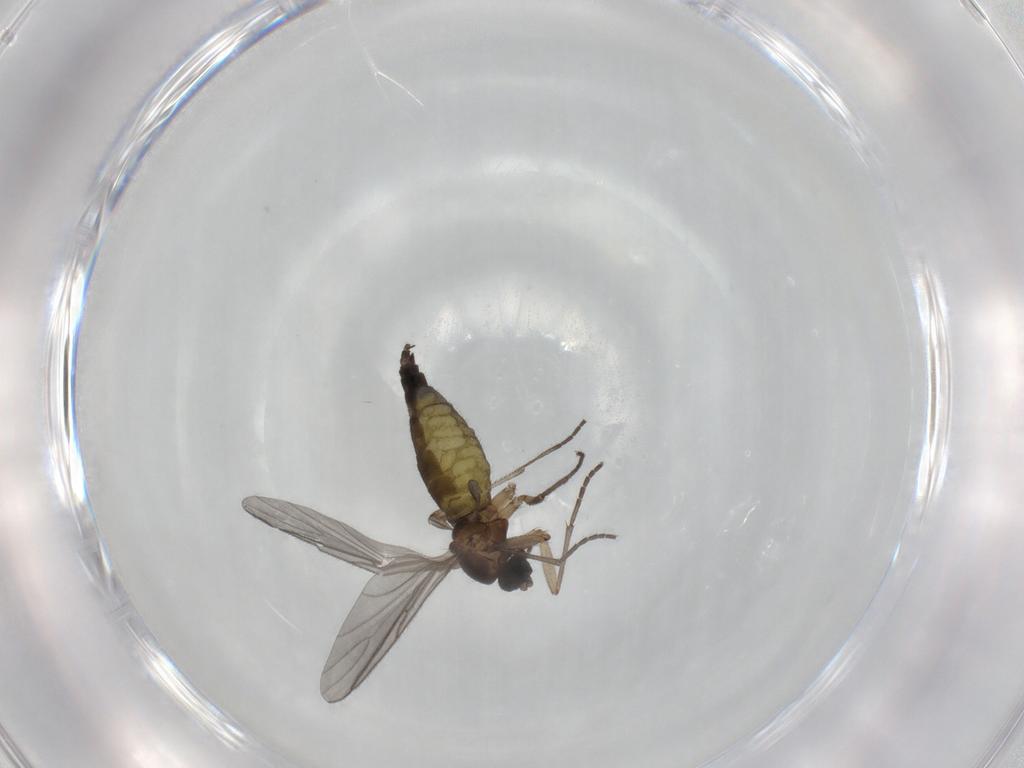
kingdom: Animalia
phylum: Arthropoda
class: Insecta
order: Diptera
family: Sciaridae
